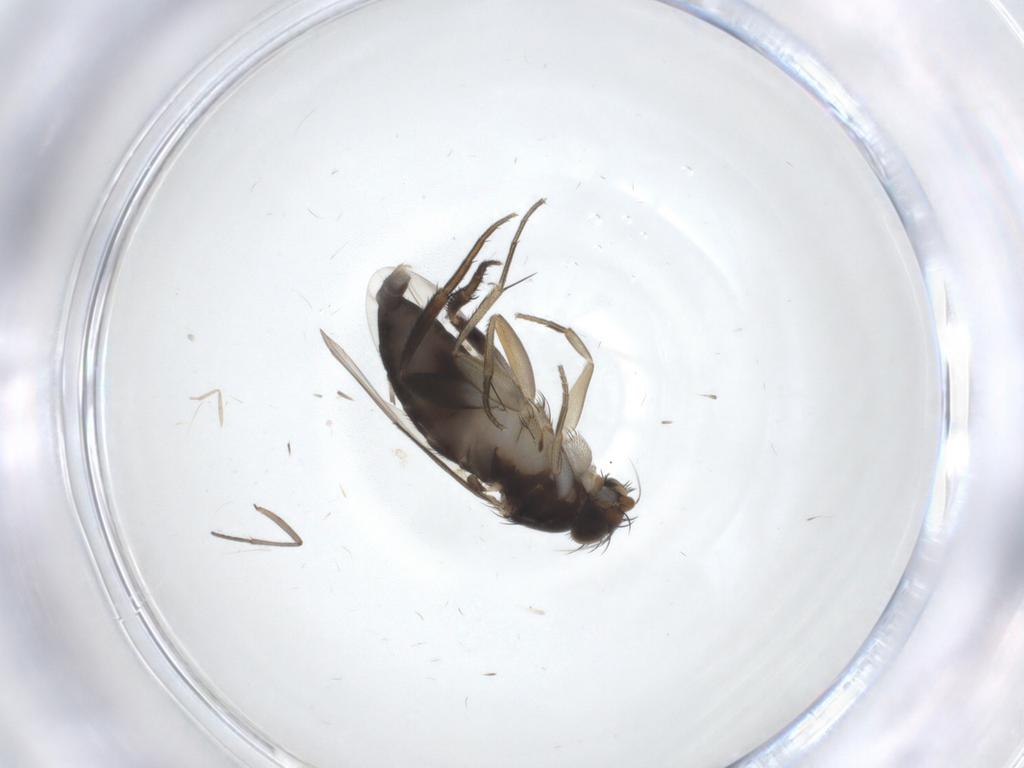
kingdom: Animalia
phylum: Arthropoda
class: Insecta
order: Diptera
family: Phoridae
